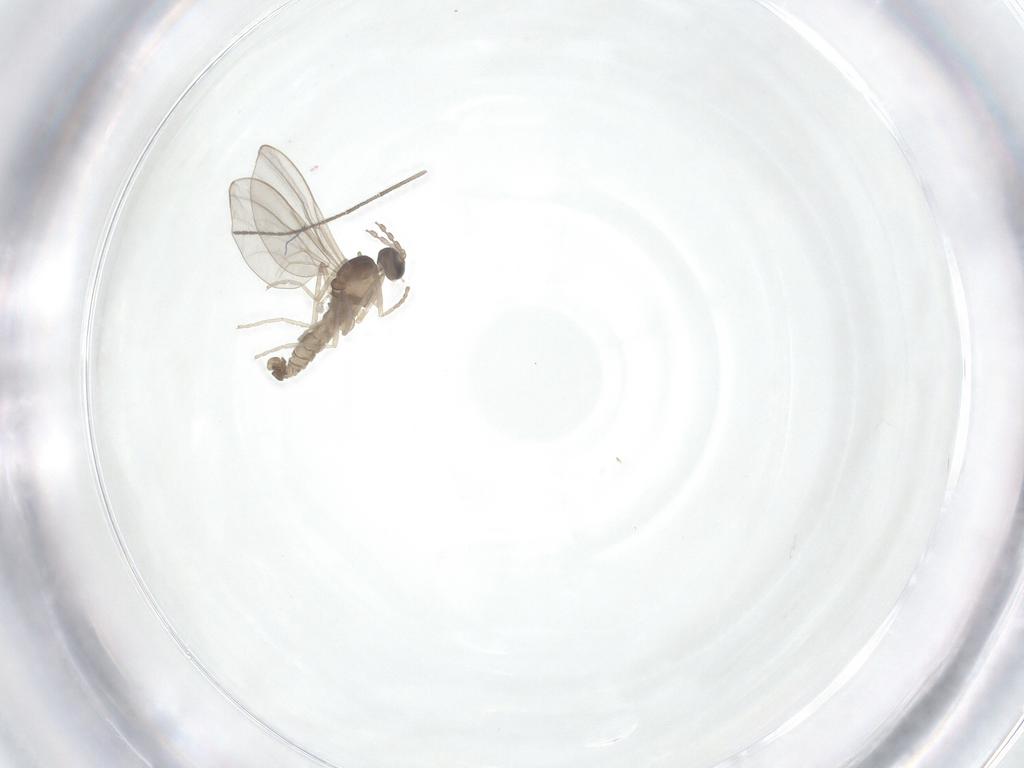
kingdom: Animalia
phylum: Arthropoda
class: Insecta
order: Diptera
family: Cecidomyiidae
